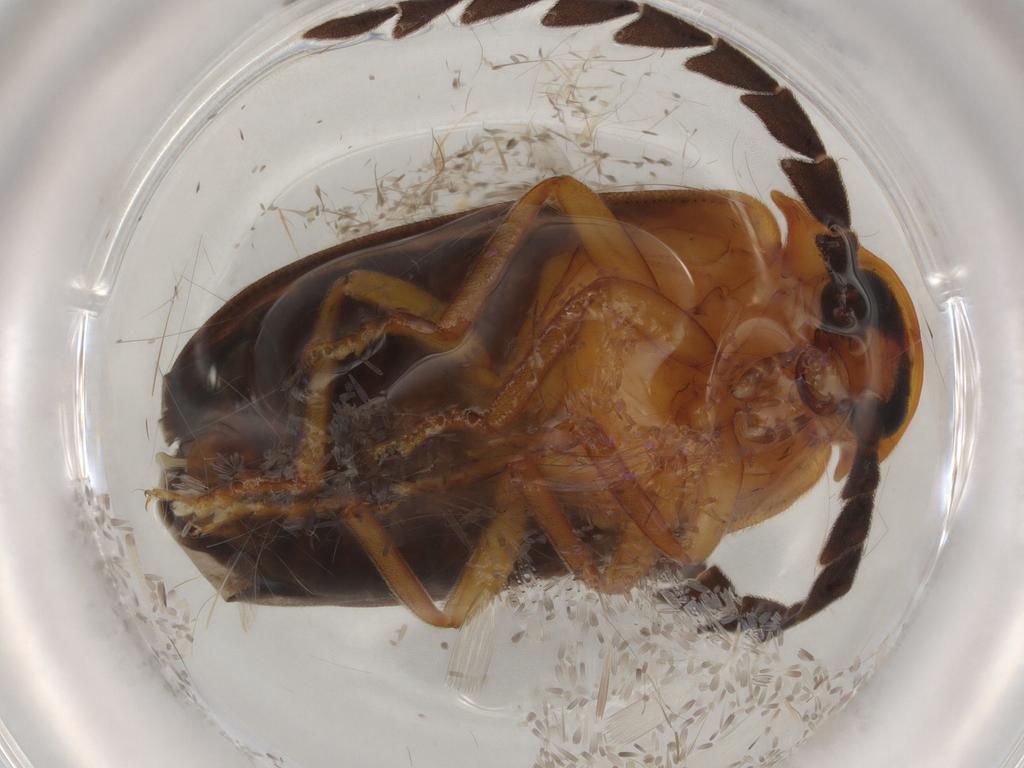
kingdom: Animalia
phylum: Arthropoda
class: Insecta
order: Coleoptera
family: Lampyridae
